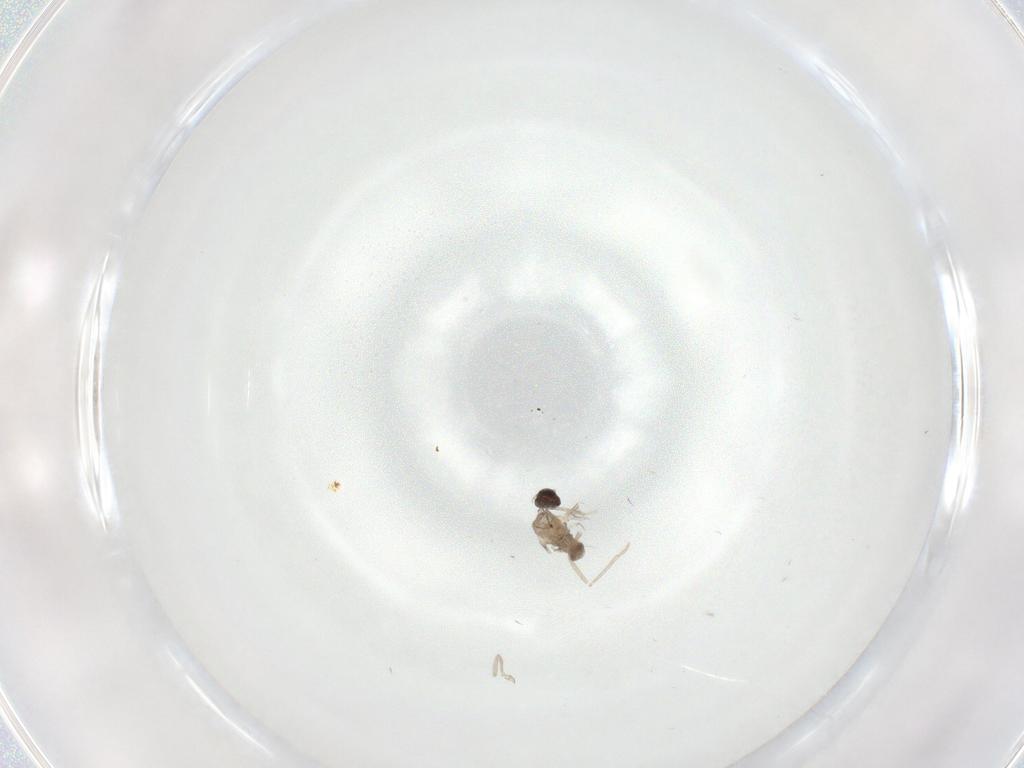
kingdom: Animalia
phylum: Arthropoda
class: Insecta
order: Diptera
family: Cecidomyiidae
